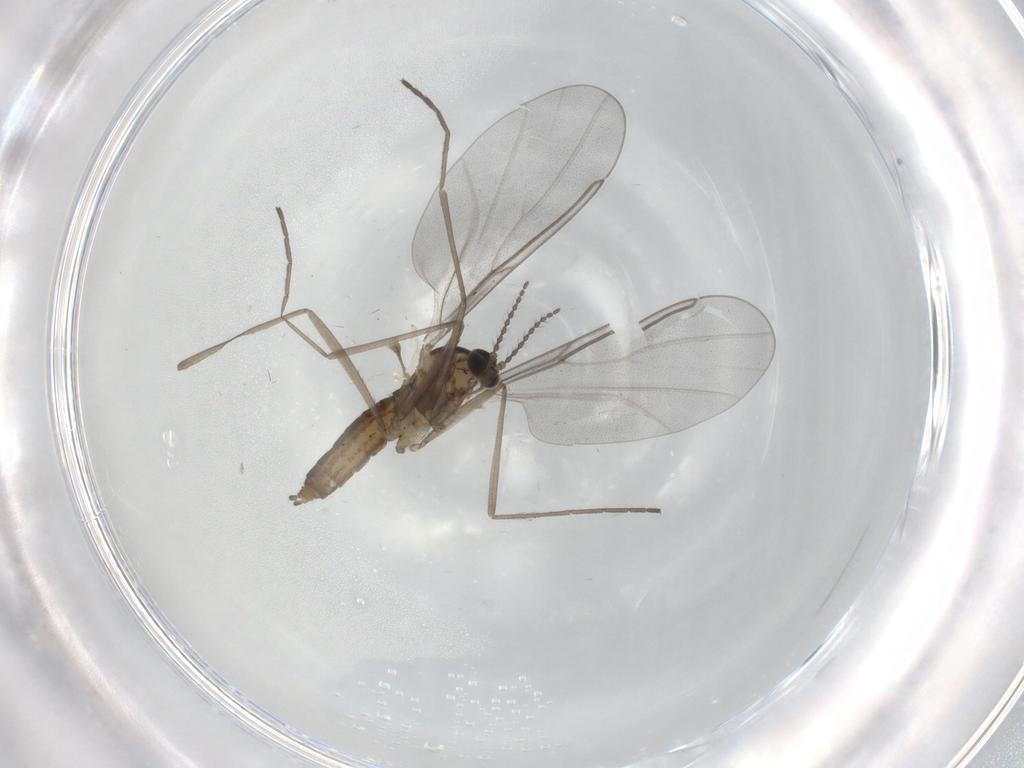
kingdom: Animalia
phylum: Arthropoda
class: Insecta
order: Diptera
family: Cecidomyiidae
